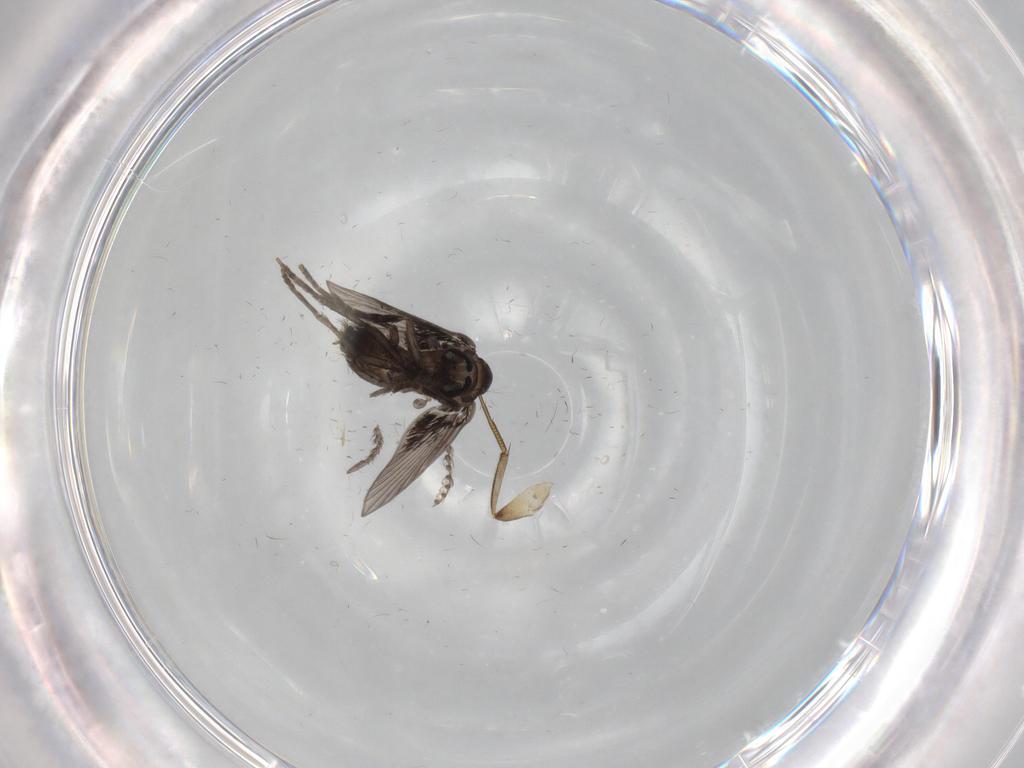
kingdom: Animalia
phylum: Arthropoda
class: Insecta
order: Diptera
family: Psychodidae
